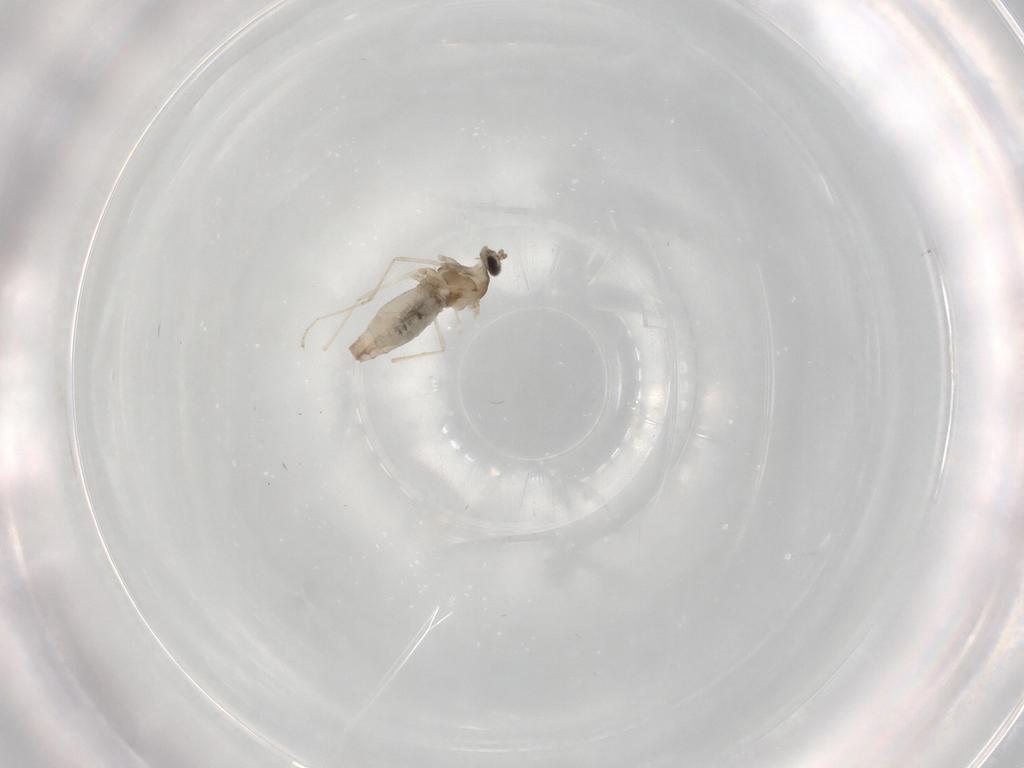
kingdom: Animalia
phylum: Arthropoda
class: Insecta
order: Diptera
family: Cecidomyiidae
